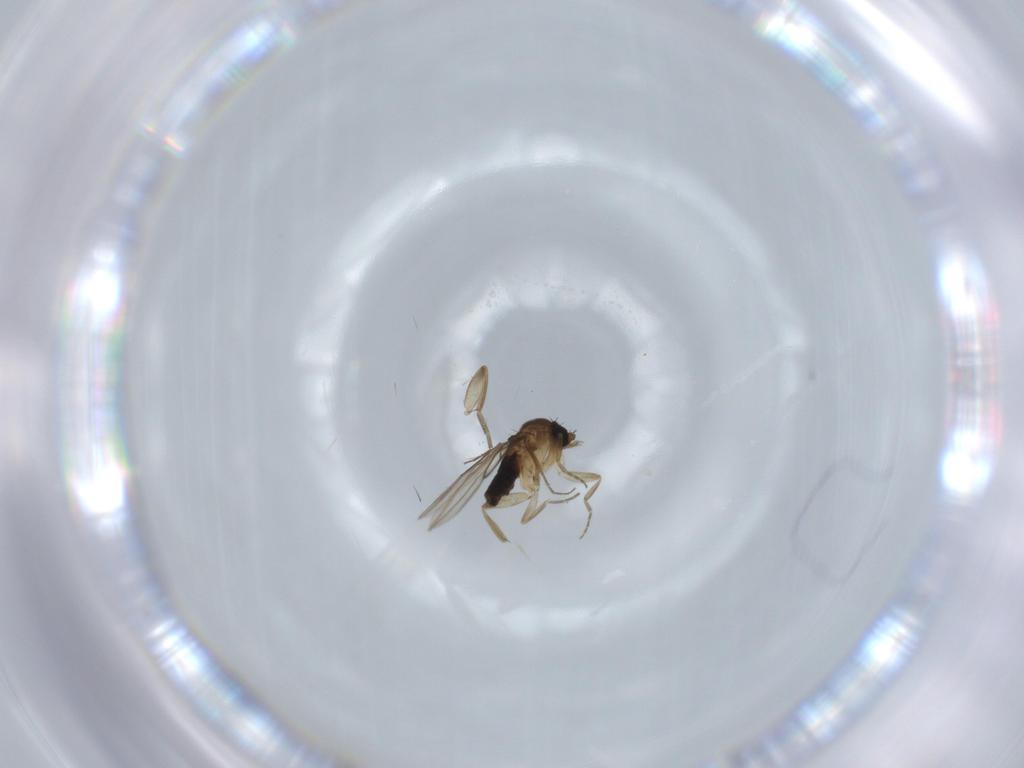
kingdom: Animalia
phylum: Arthropoda
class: Insecta
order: Diptera
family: Phoridae
